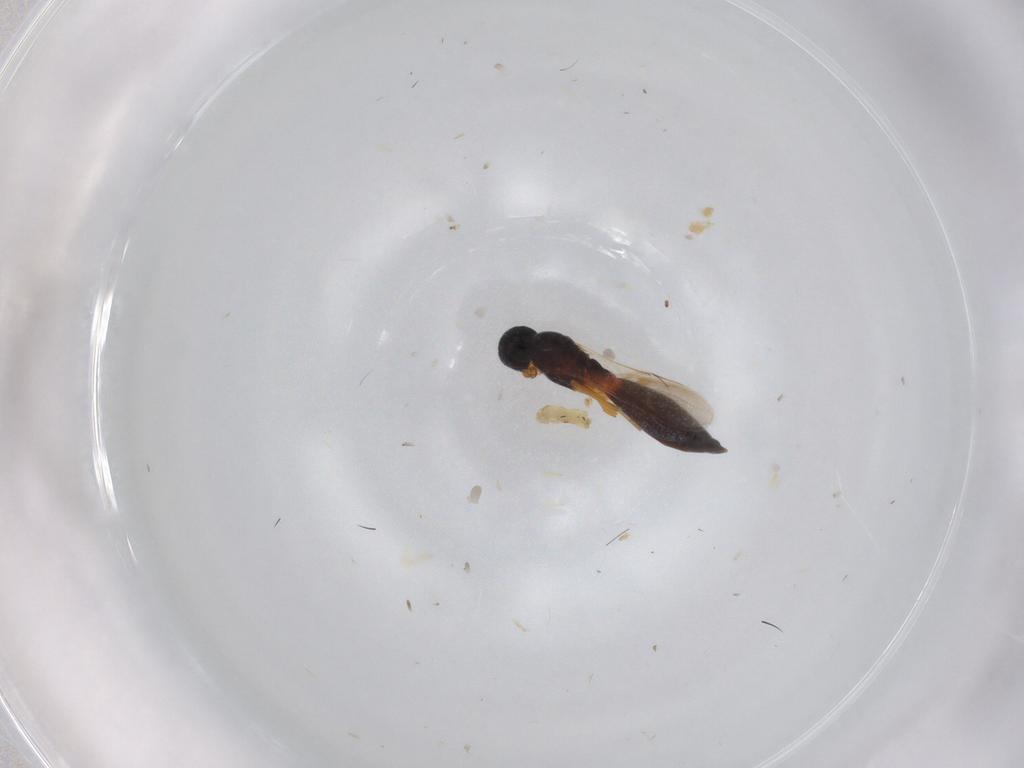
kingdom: Animalia
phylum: Arthropoda
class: Insecta
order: Hymenoptera
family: Scelionidae
